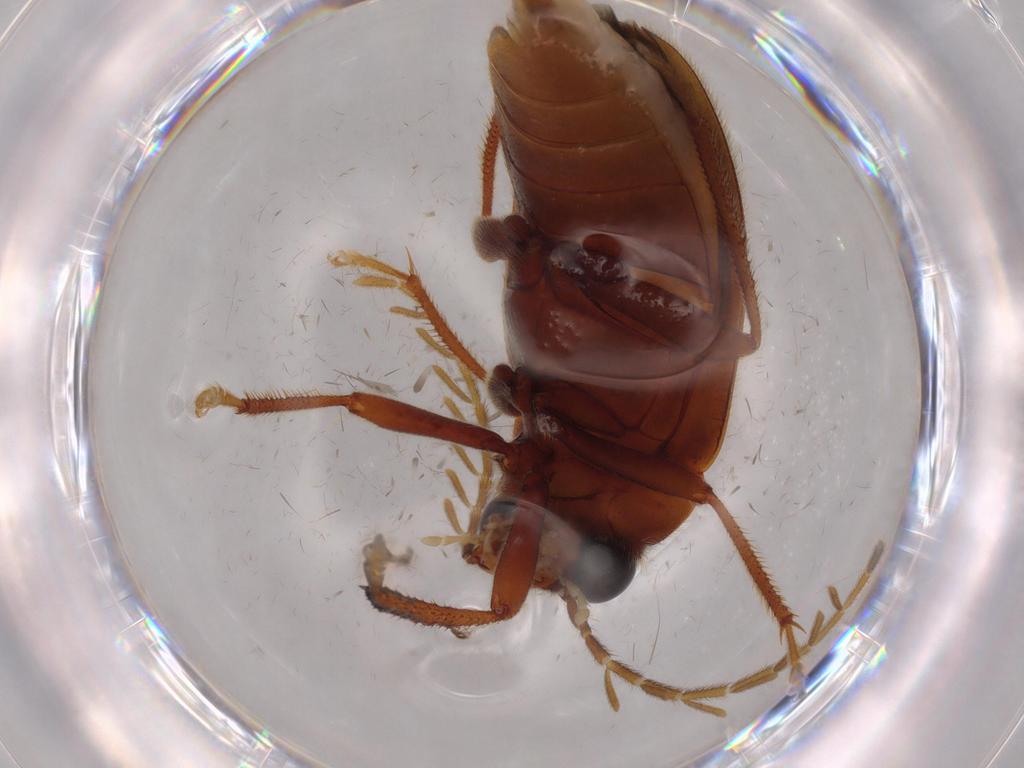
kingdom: Animalia
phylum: Arthropoda
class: Insecta
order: Coleoptera
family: Ptilodactylidae
